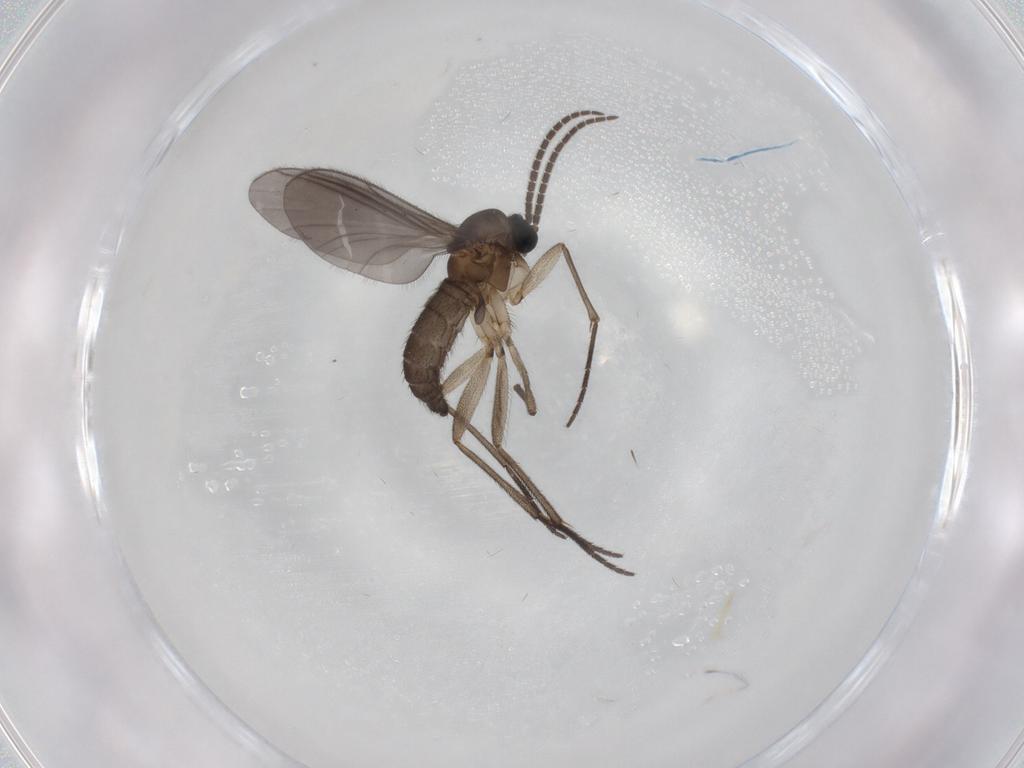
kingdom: Animalia
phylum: Arthropoda
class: Insecta
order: Diptera
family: Sciaridae
